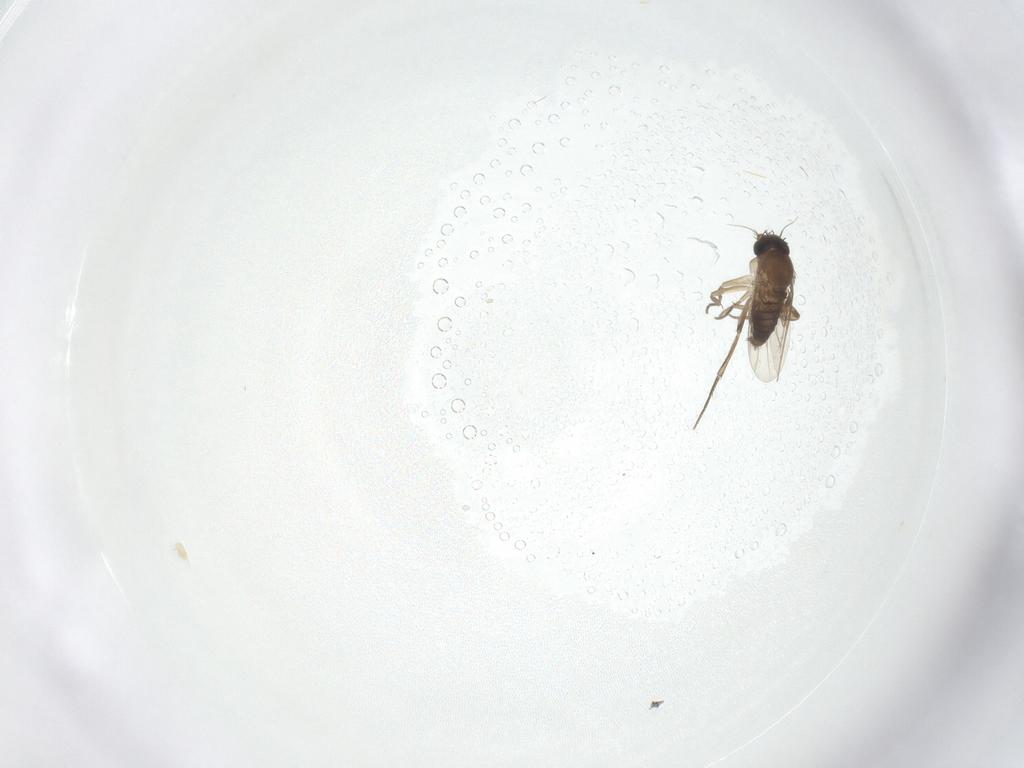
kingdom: Animalia
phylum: Arthropoda
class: Insecta
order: Diptera
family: Phoridae
